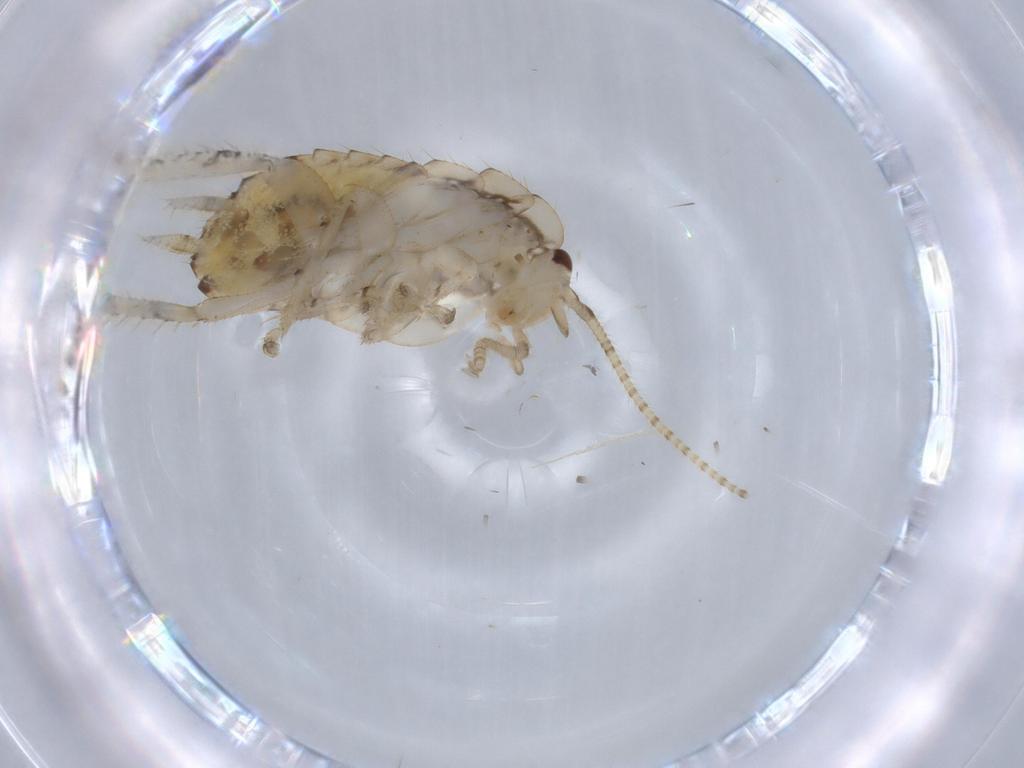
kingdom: Animalia
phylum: Arthropoda
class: Insecta
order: Blattodea
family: Ectobiidae
